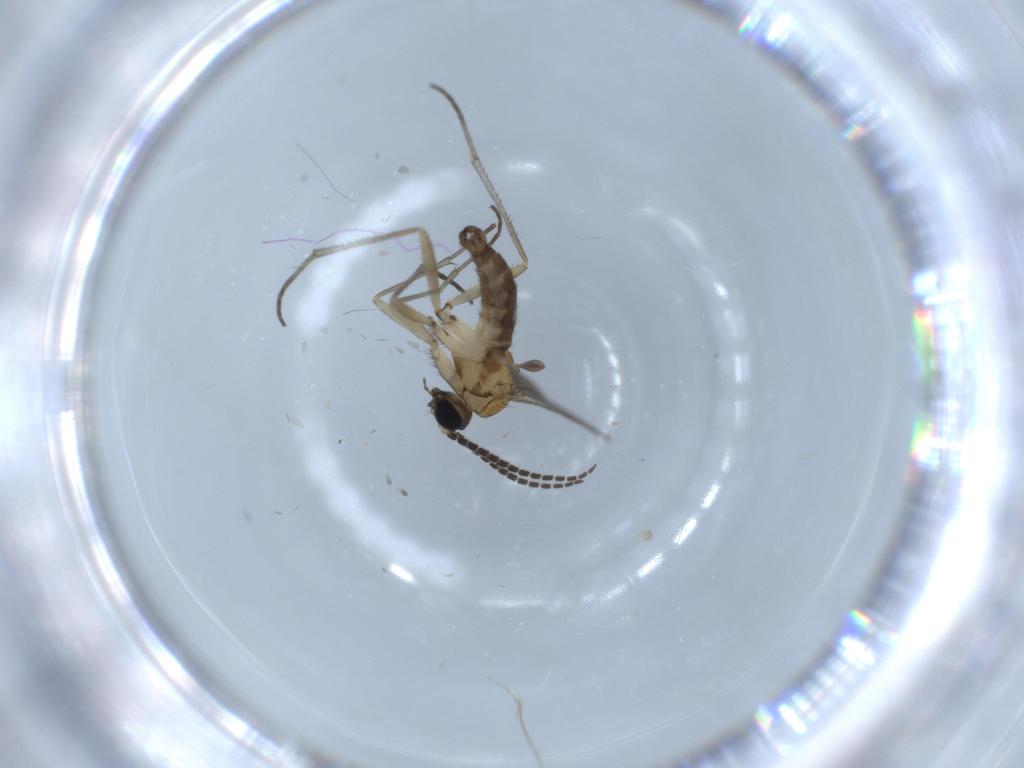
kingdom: Animalia
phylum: Arthropoda
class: Insecta
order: Diptera
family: Sciaridae
